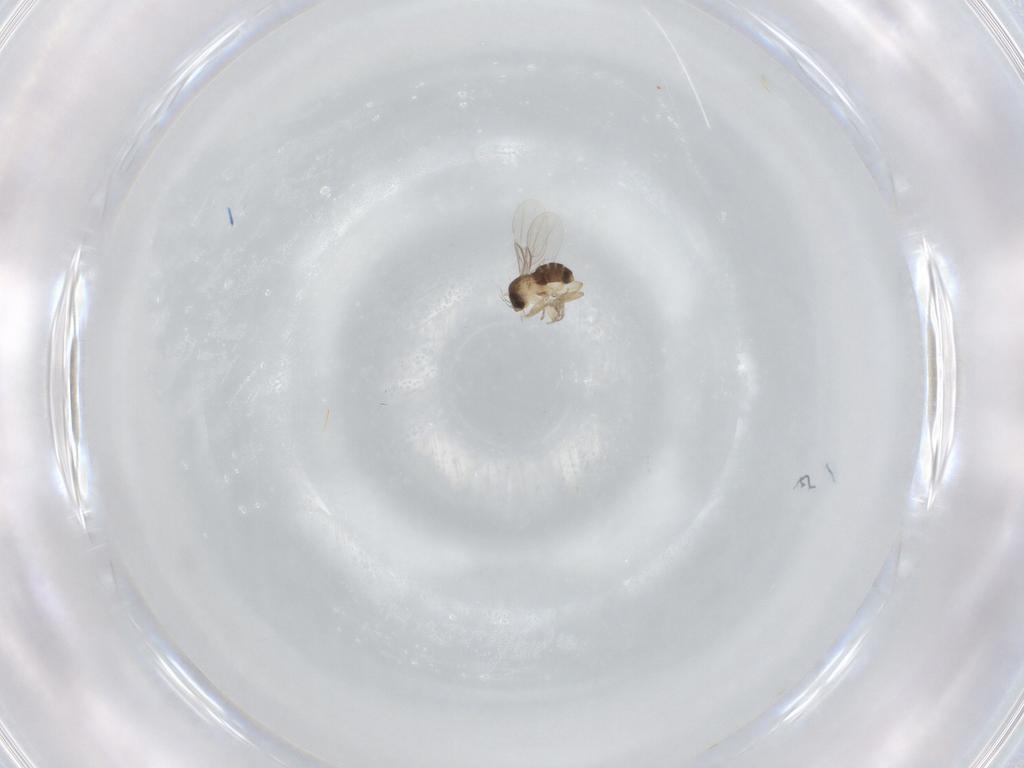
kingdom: Animalia
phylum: Arthropoda
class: Insecta
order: Diptera
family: Phoridae
